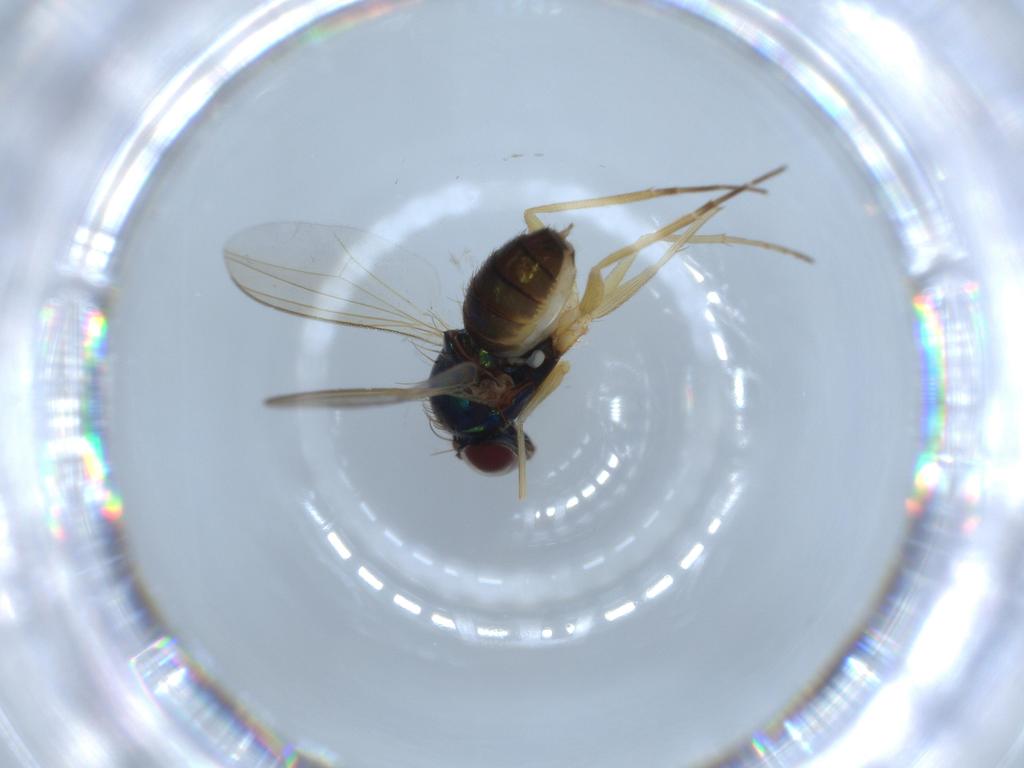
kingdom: Animalia
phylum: Arthropoda
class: Insecta
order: Diptera
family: Dolichopodidae
